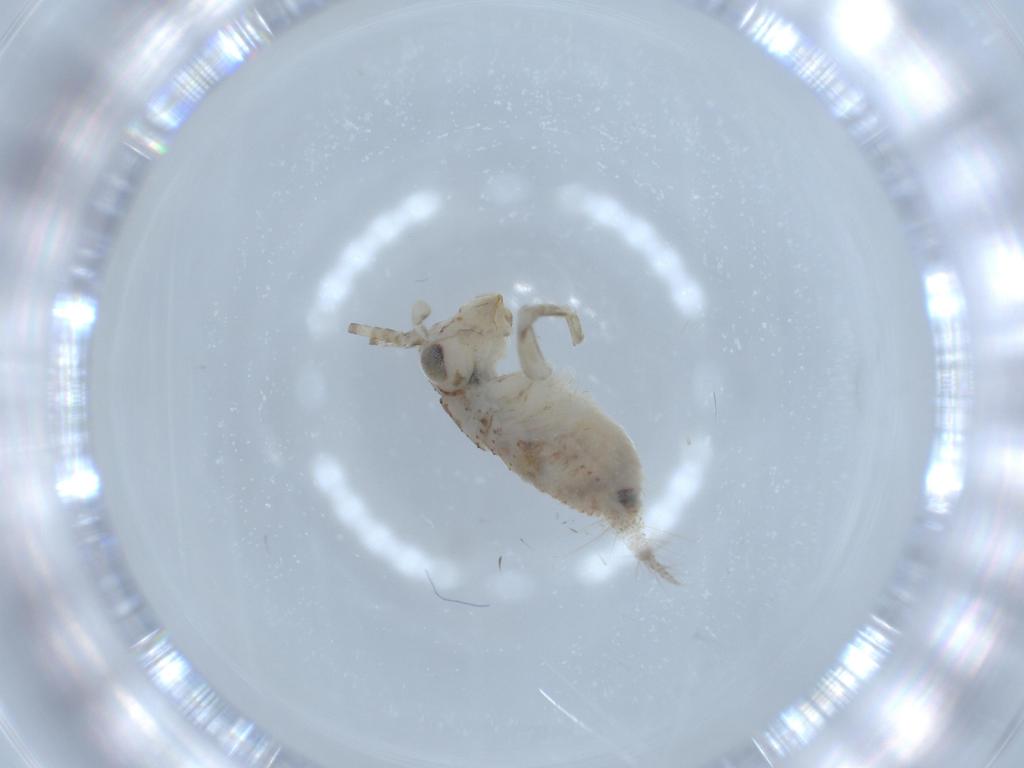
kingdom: Animalia
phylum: Arthropoda
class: Insecta
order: Orthoptera
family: Trigonidiidae
